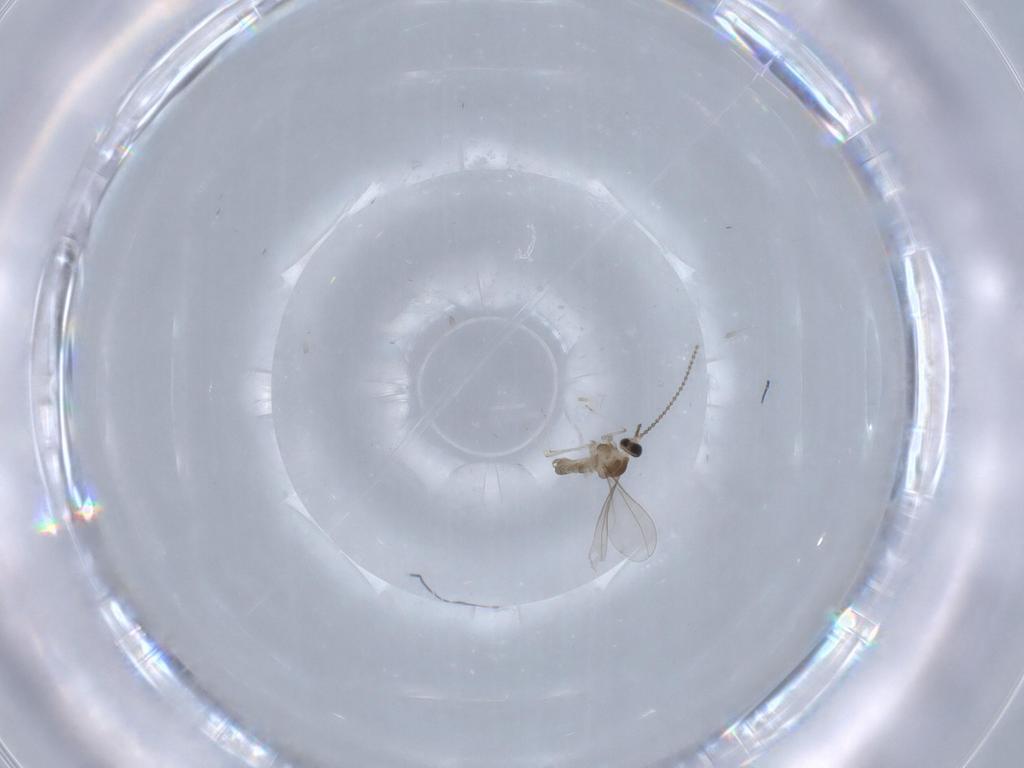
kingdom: Animalia
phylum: Arthropoda
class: Insecta
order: Diptera
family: Cecidomyiidae
